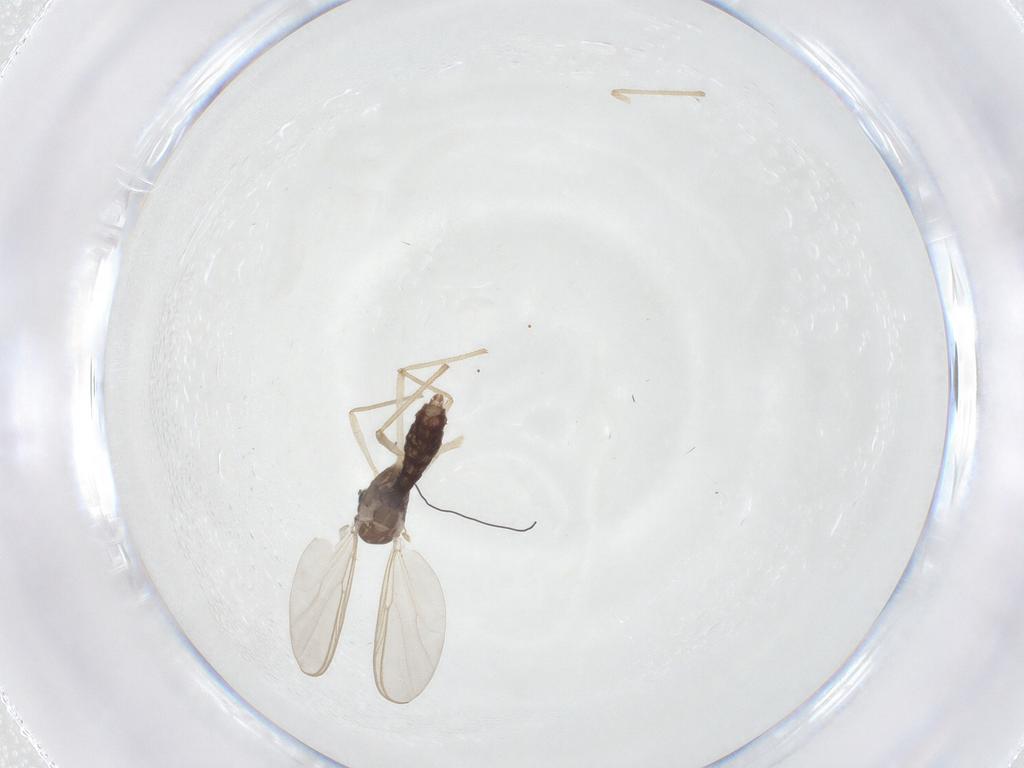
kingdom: Animalia
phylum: Arthropoda
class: Insecta
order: Diptera
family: Chironomidae
